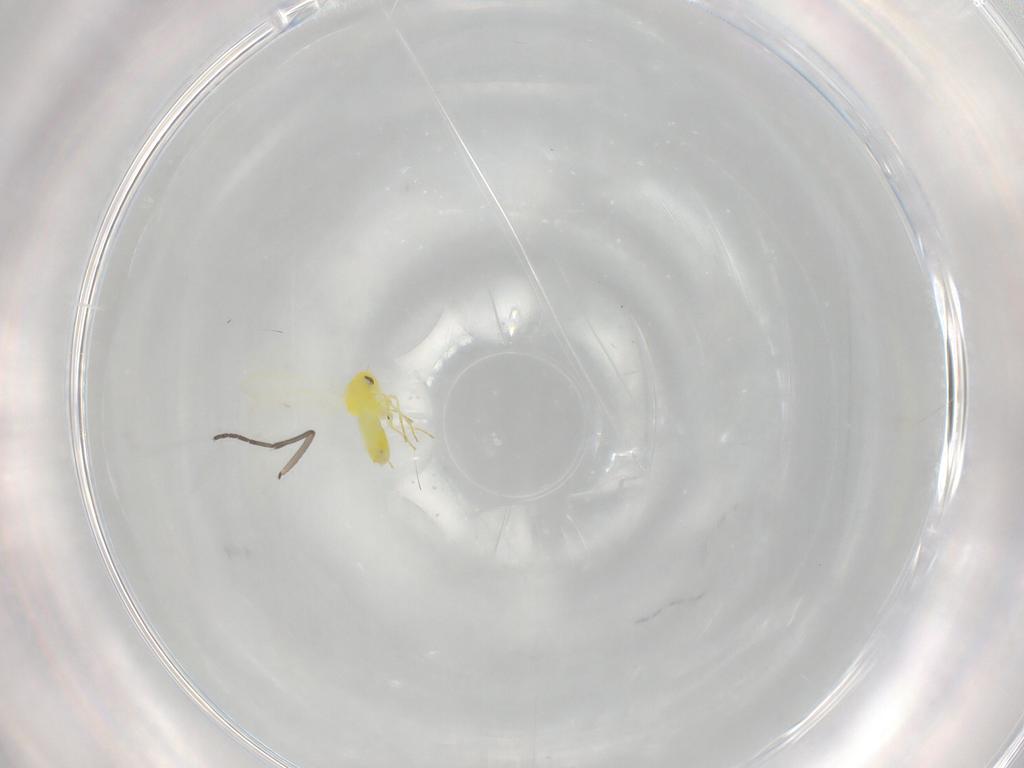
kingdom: Animalia
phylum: Arthropoda
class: Insecta
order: Hemiptera
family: Aleyrodidae
